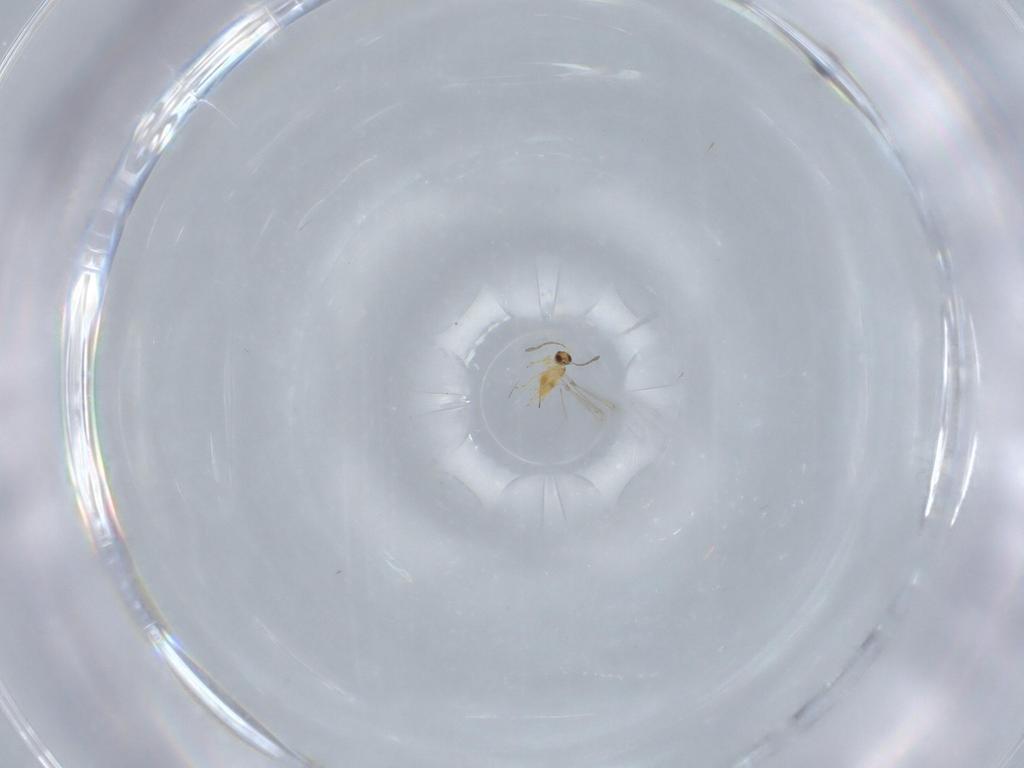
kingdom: Animalia
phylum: Arthropoda
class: Insecta
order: Hymenoptera
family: Mymaridae
